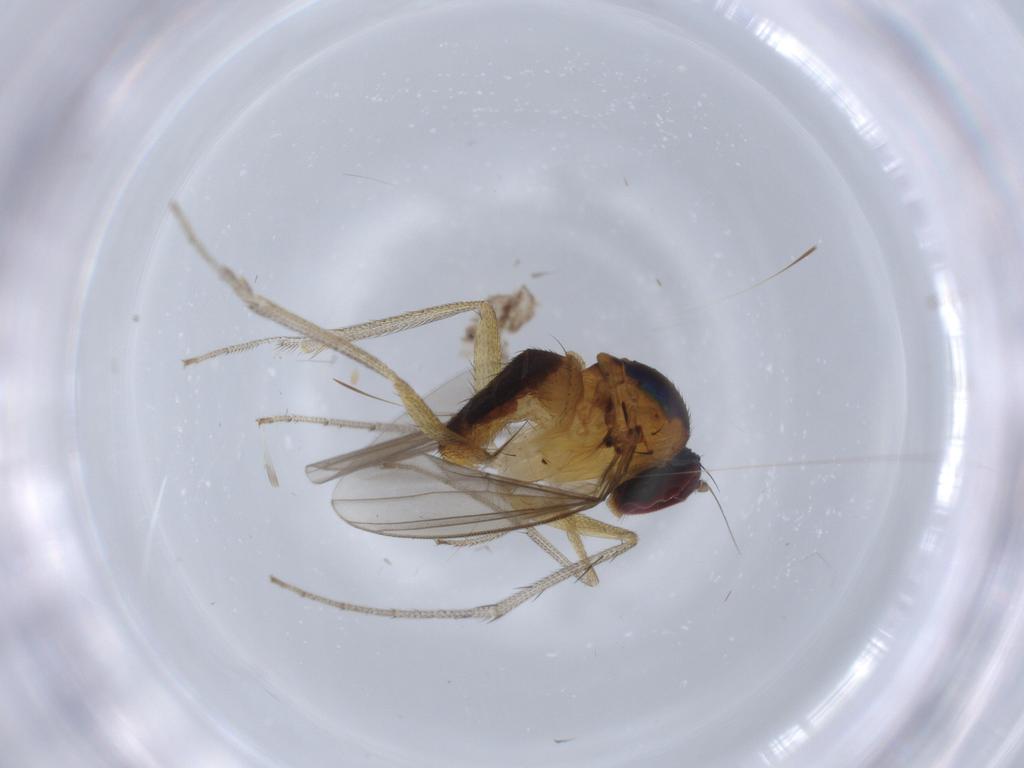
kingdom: Animalia
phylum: Arthropoda
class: Insecta
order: Diptera
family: Dolichopodidae
